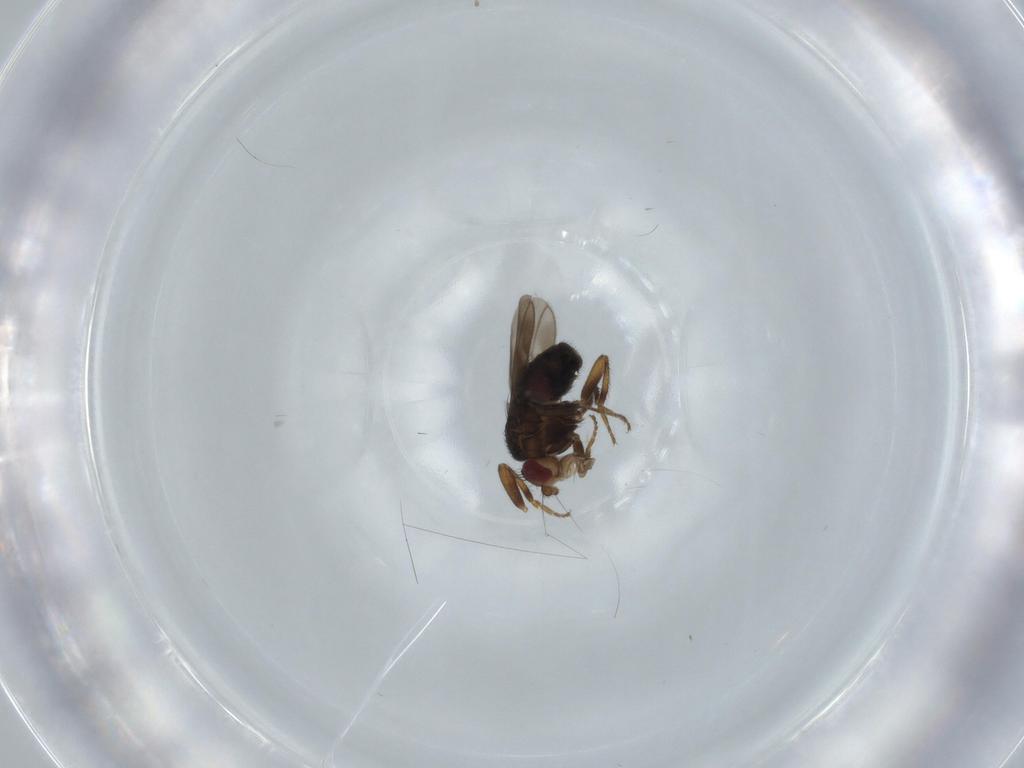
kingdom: Animalia
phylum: Arthropoda
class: Insecta
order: Diptera
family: Sphaeroceridae
